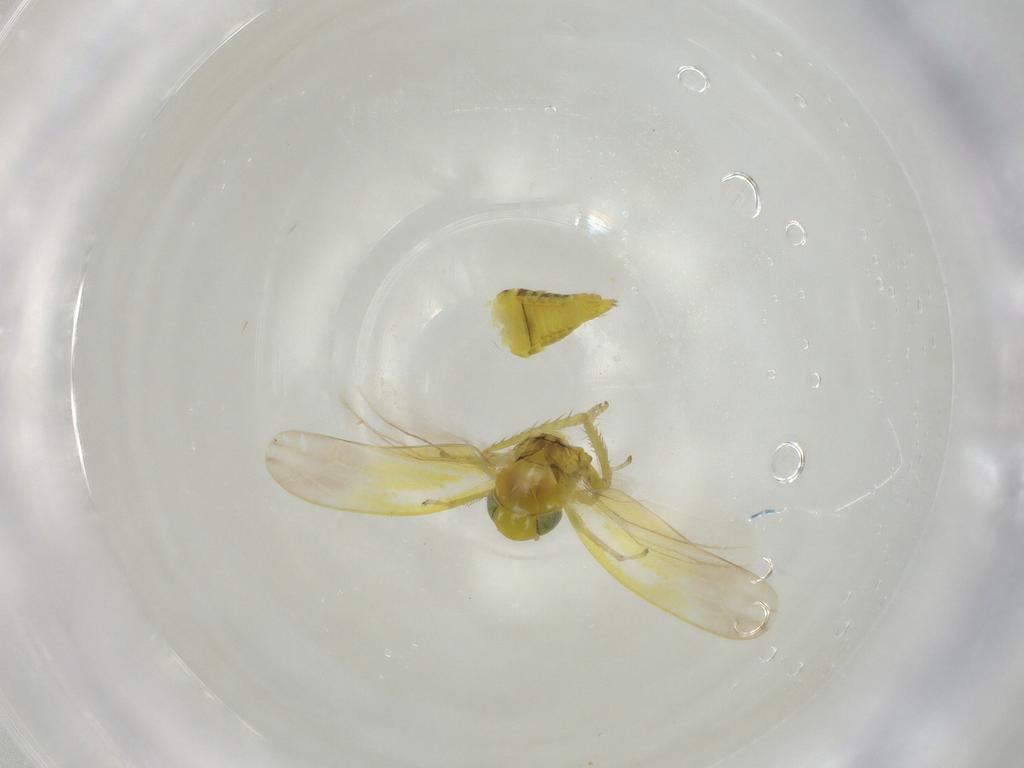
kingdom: Animalia
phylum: Arthropoda
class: Insecta
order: Hemiptera
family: Cicadellidae
